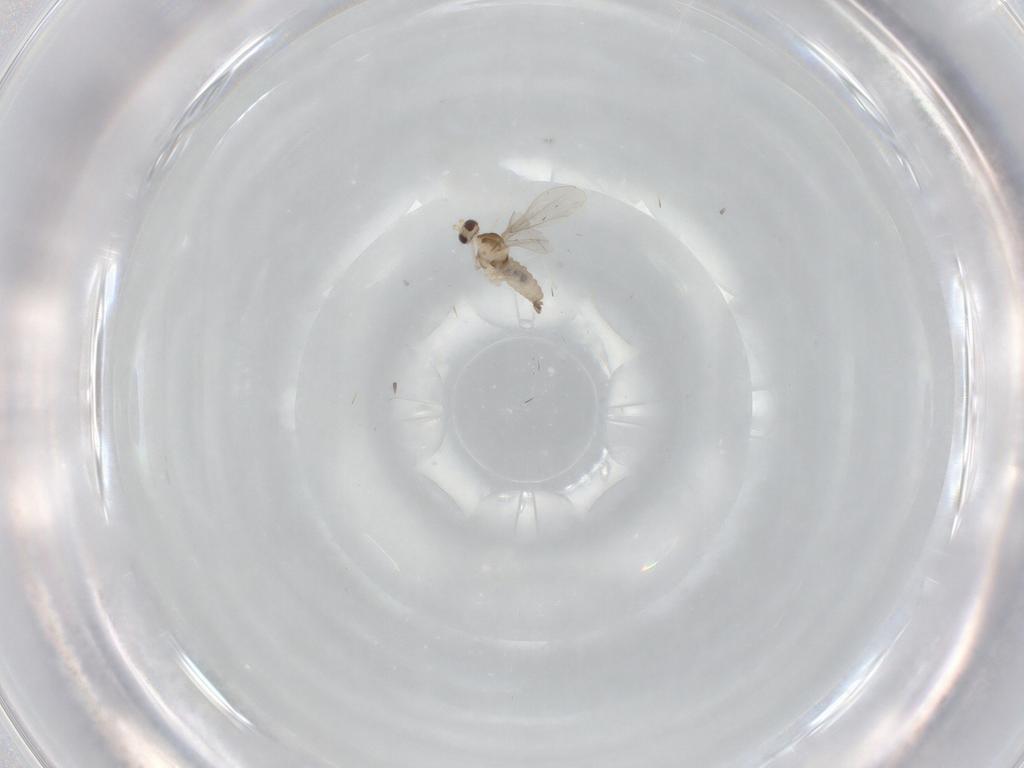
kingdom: Animalia
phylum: Arthropoda
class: Insecta
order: Diptera
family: Cecidomyiidae
